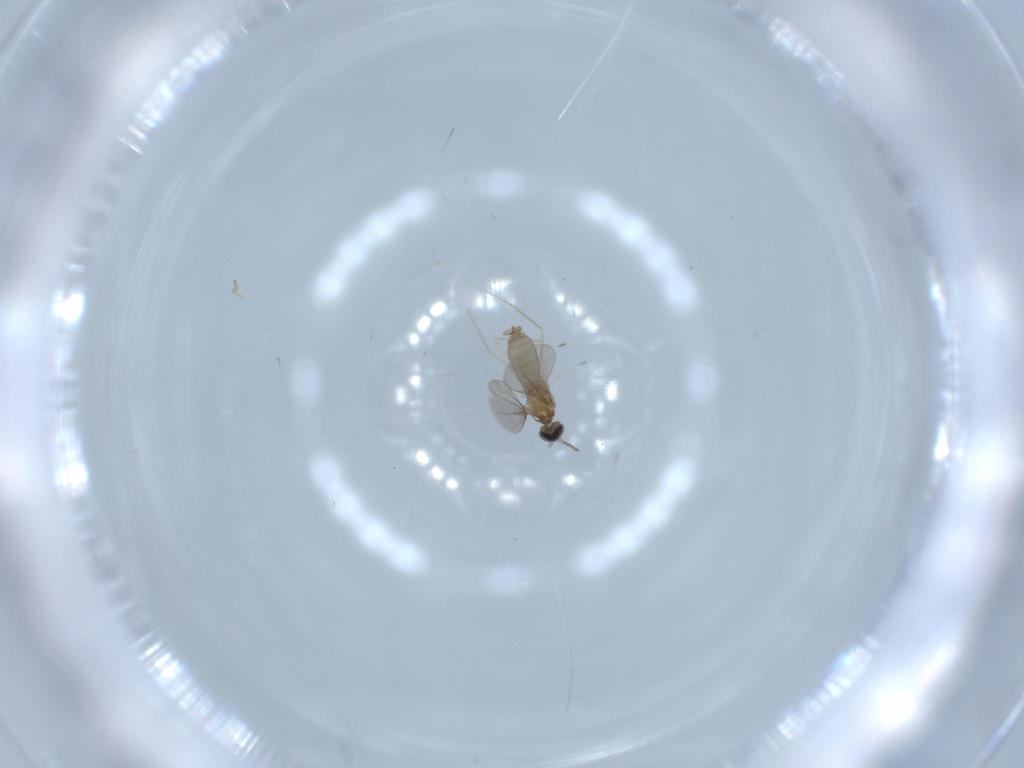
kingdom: Animalia
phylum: Arthropoda
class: Insecta
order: Diptera
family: Cecidomyiidae
